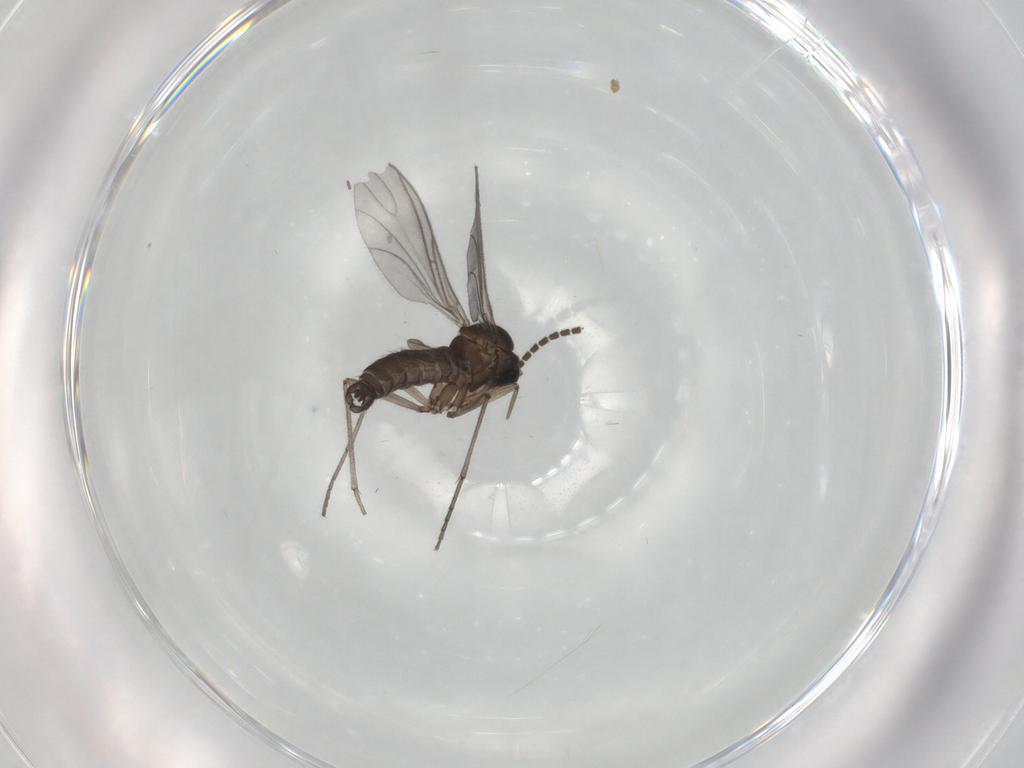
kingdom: Animalia
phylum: Arthropoda
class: Insecta
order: Diptera
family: Sciaridae
